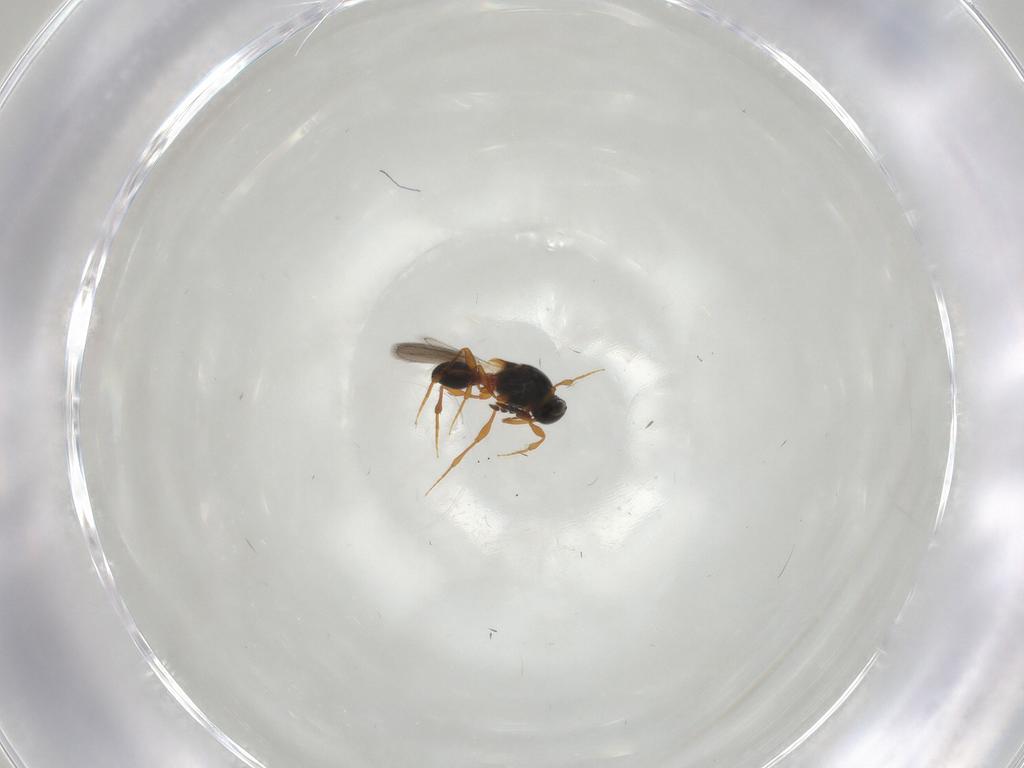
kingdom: Animalia
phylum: Arthropoda
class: Insecta
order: Hymenoptera
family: Platygastridae
